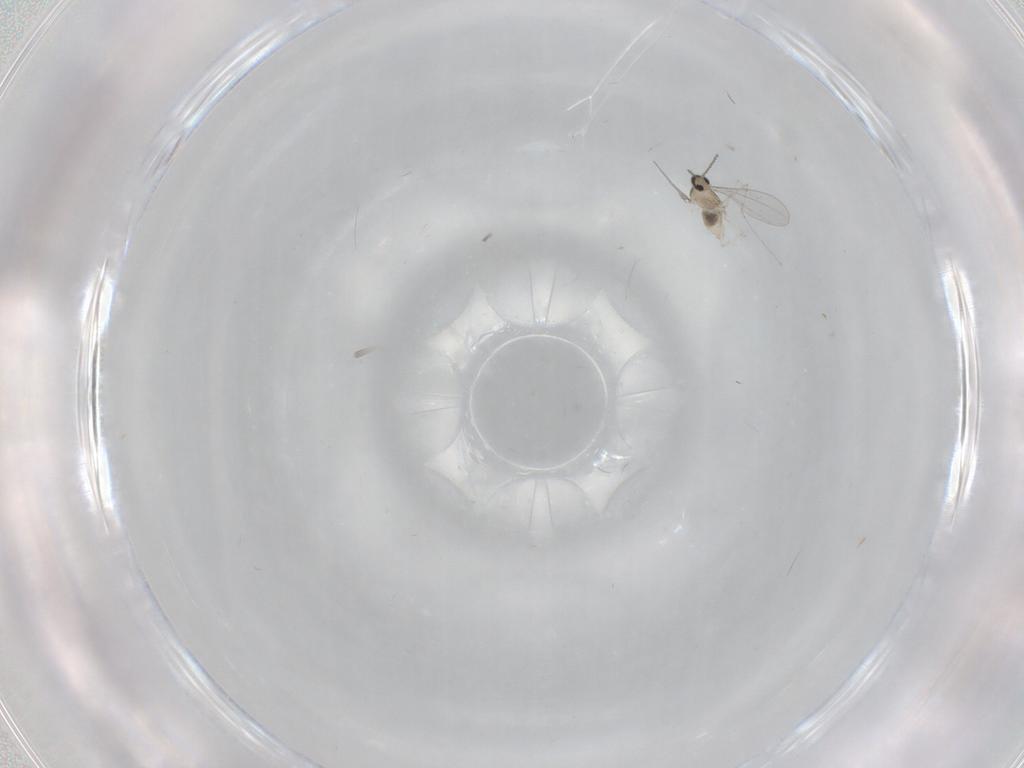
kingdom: Animalia
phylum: Arthropoda
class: Insecta
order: Diptera
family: Cecidomyiidae
